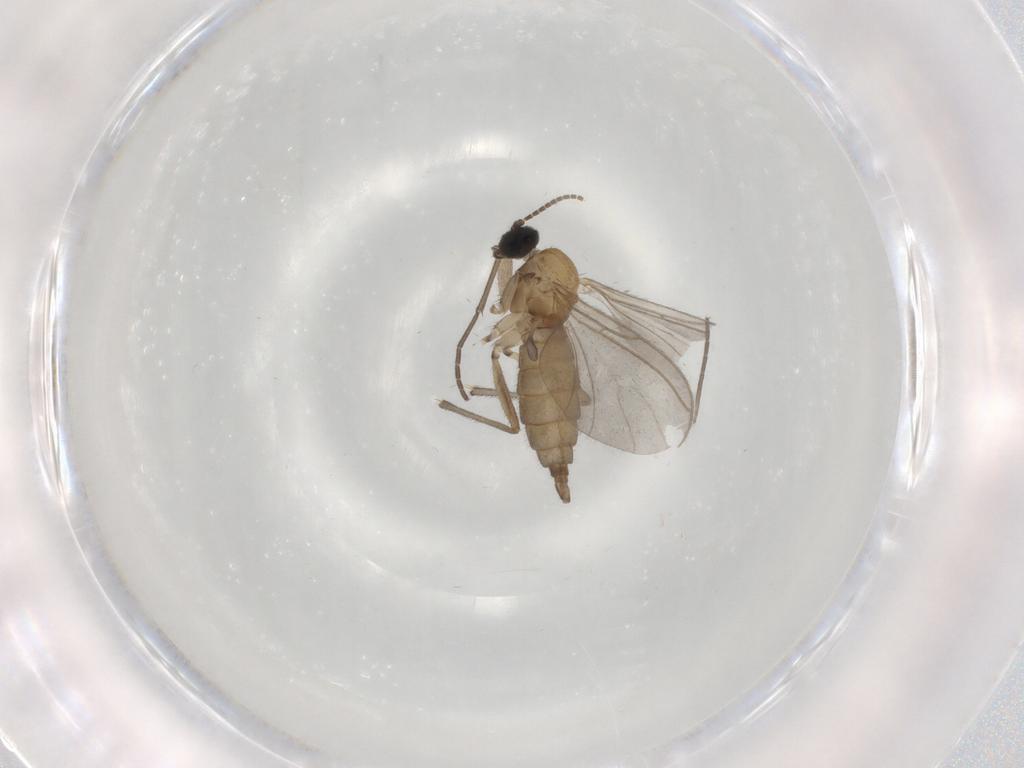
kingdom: Animalia
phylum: Arthropoda
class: Insecta
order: Diptera
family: Sciaridae
